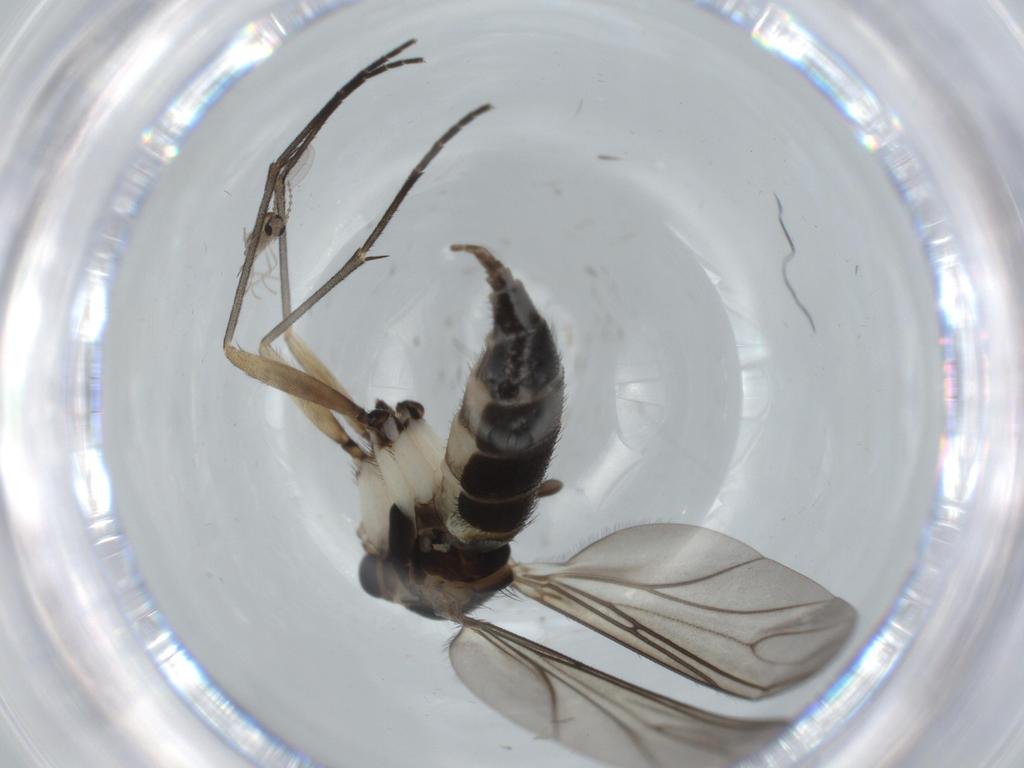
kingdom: Animalia
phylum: Arthropoda
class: Insecta
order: Diptera
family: Sciaridae
